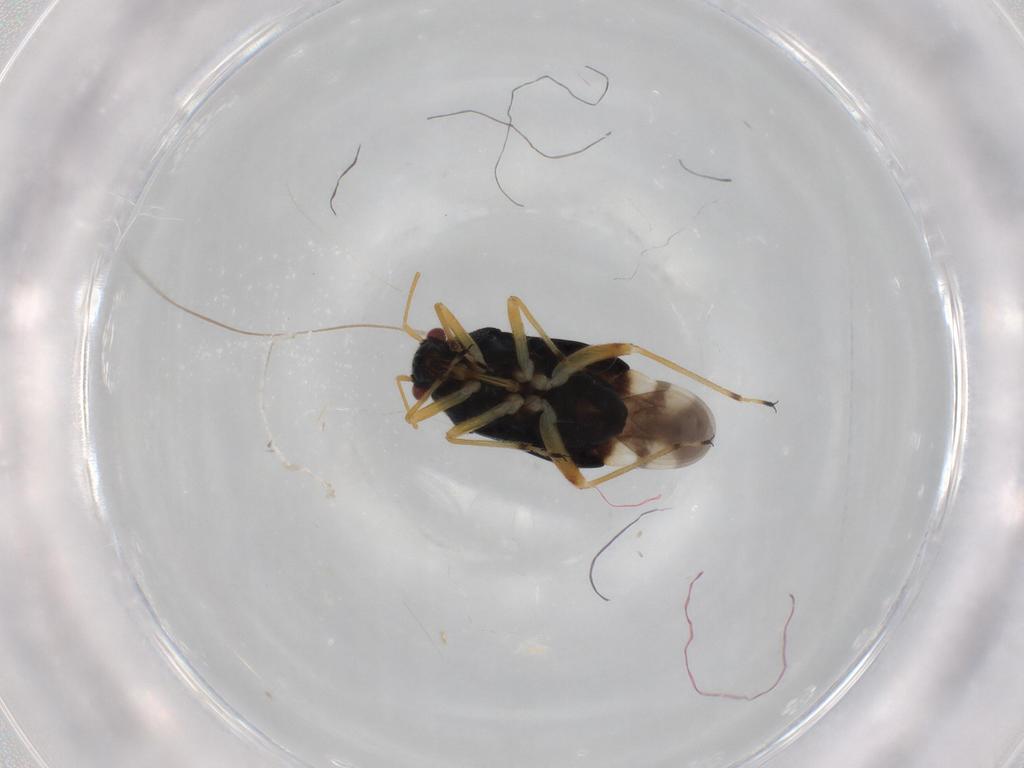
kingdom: Animalia
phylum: Arthropoda
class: Insecta
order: Hemiptera
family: Miridae
